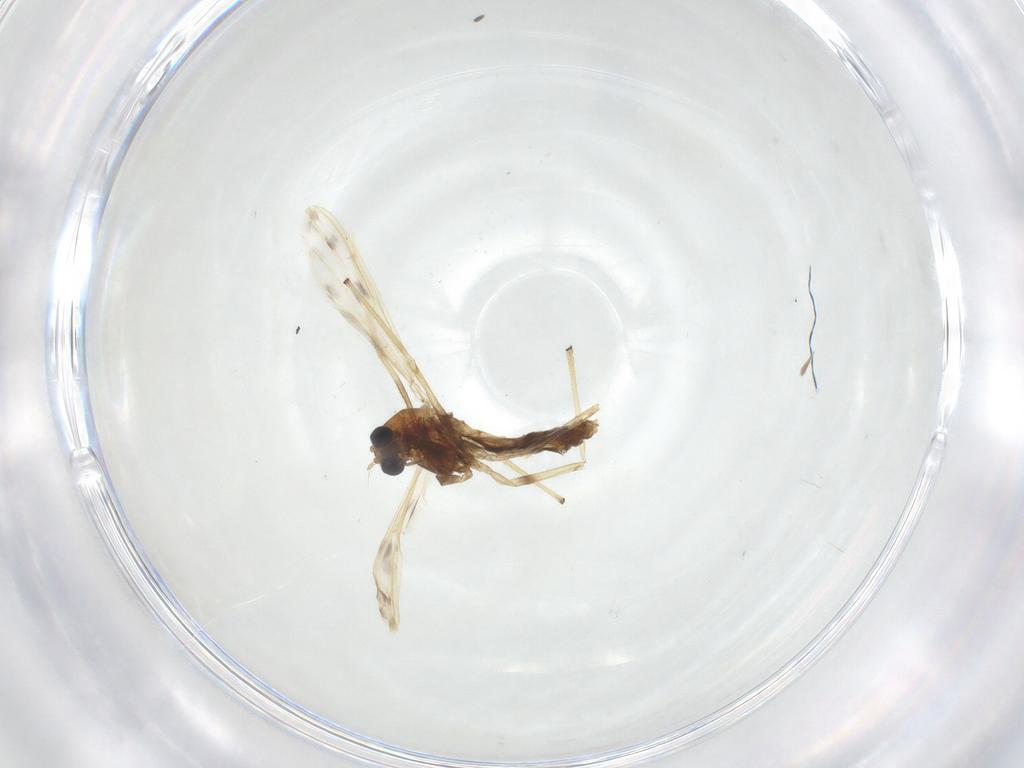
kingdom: Animalia
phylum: Arthropoda
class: Insecta
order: Diptera
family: Chironomidae
